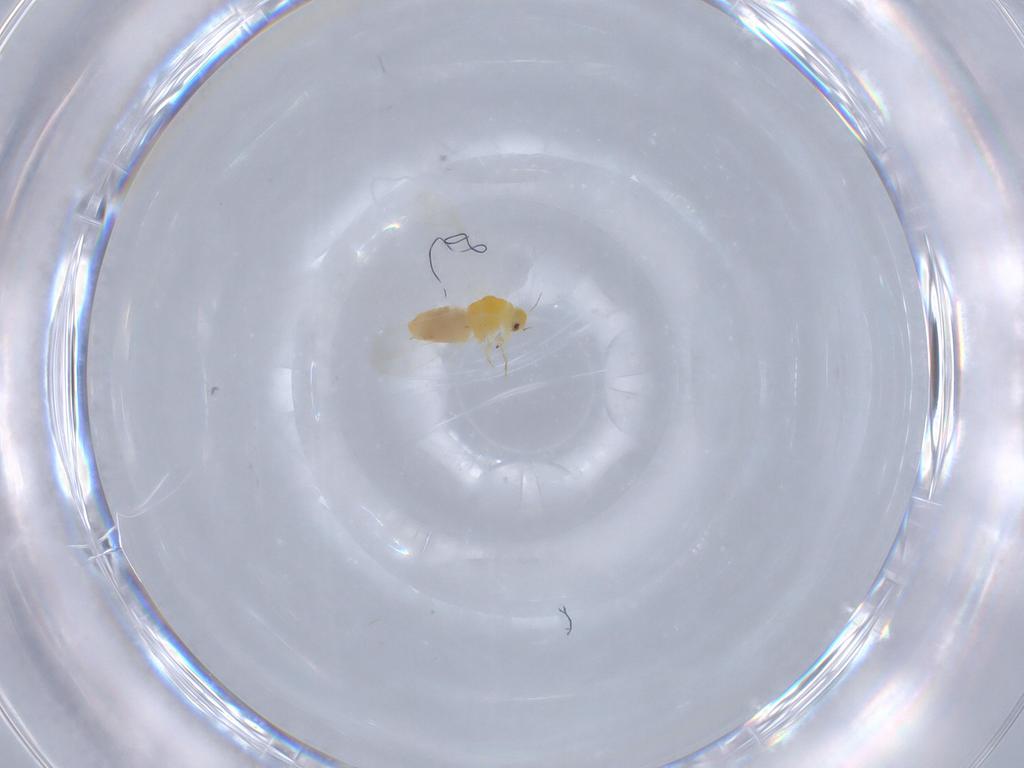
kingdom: Animalia
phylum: Arthropoda
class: Insecta
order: Hemiptera
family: Aleyrodidae
